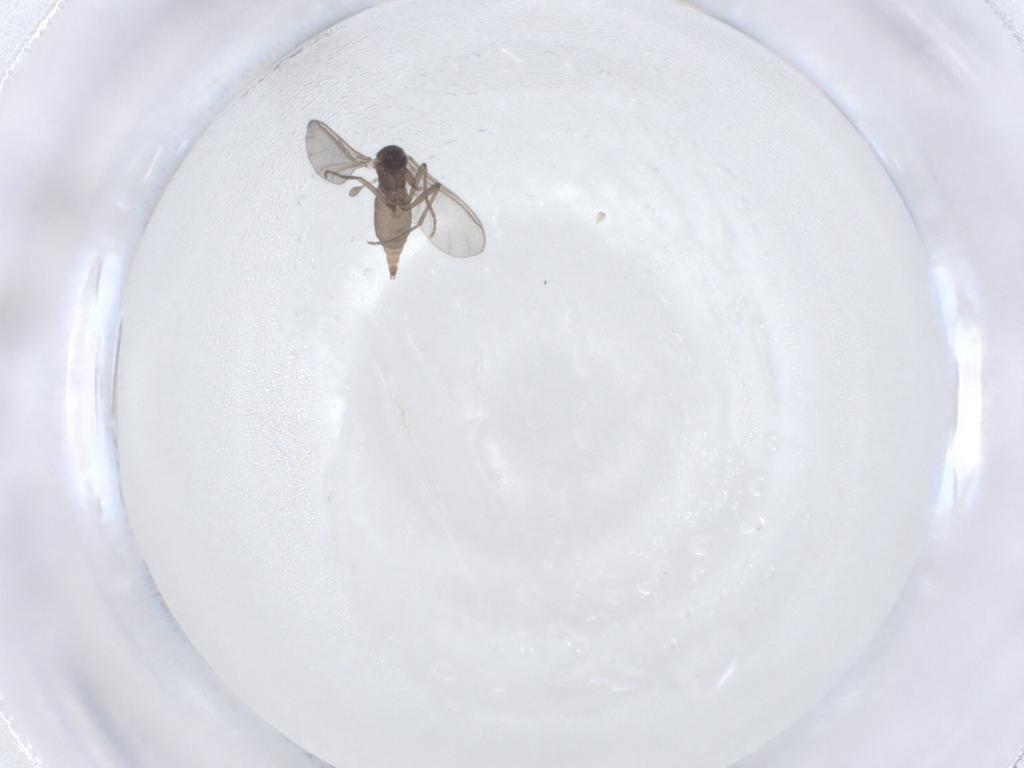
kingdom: Animalia
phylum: Arthropoda
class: Insecta
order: Diptera
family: Sciaridae
